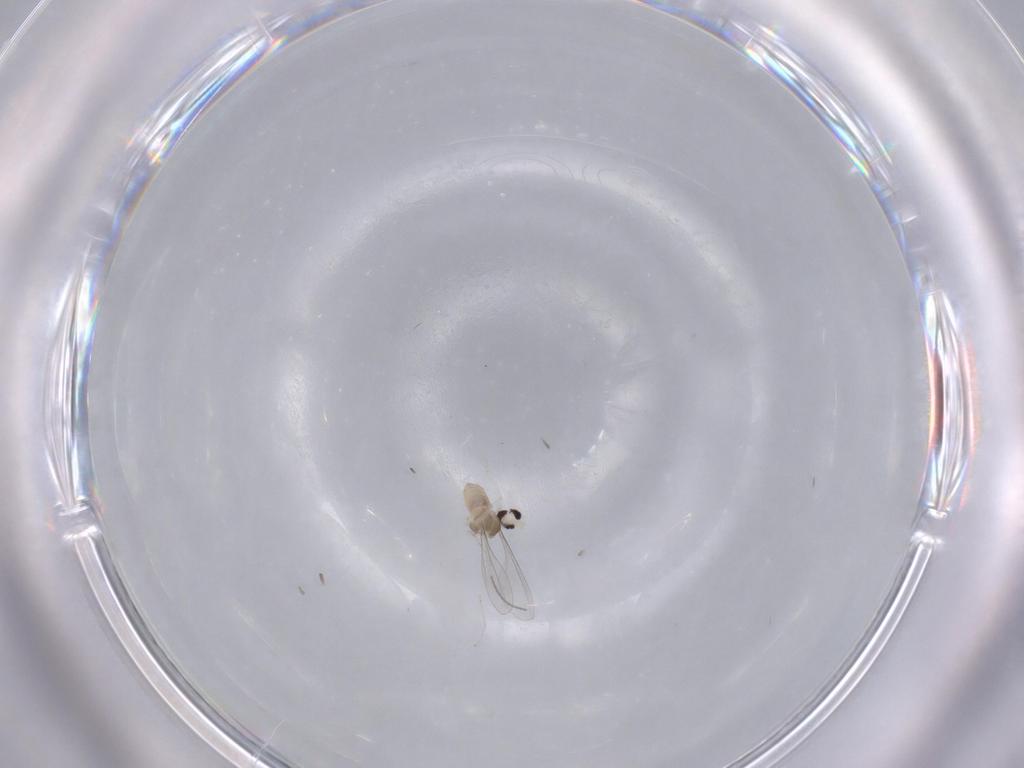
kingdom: Animalia
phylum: Arthropoda
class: Insecta
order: Diptera
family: Cecidomyiidae
